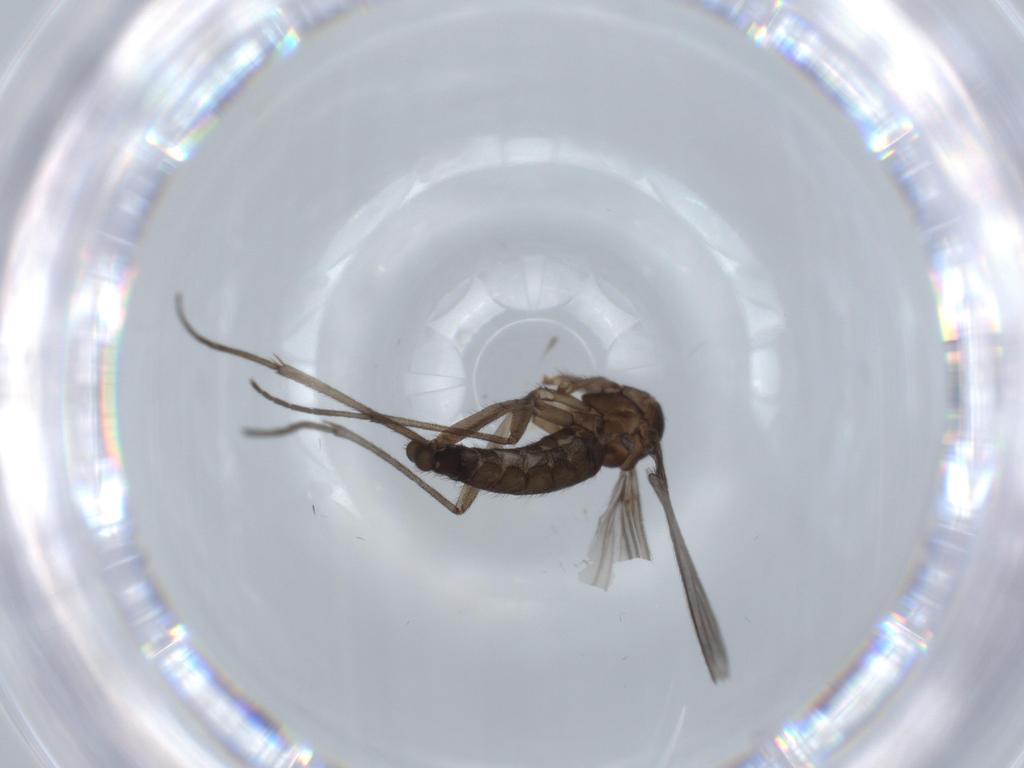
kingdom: Animalia
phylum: Arthropoda
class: Insecta
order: Diptera
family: Sciaridae
